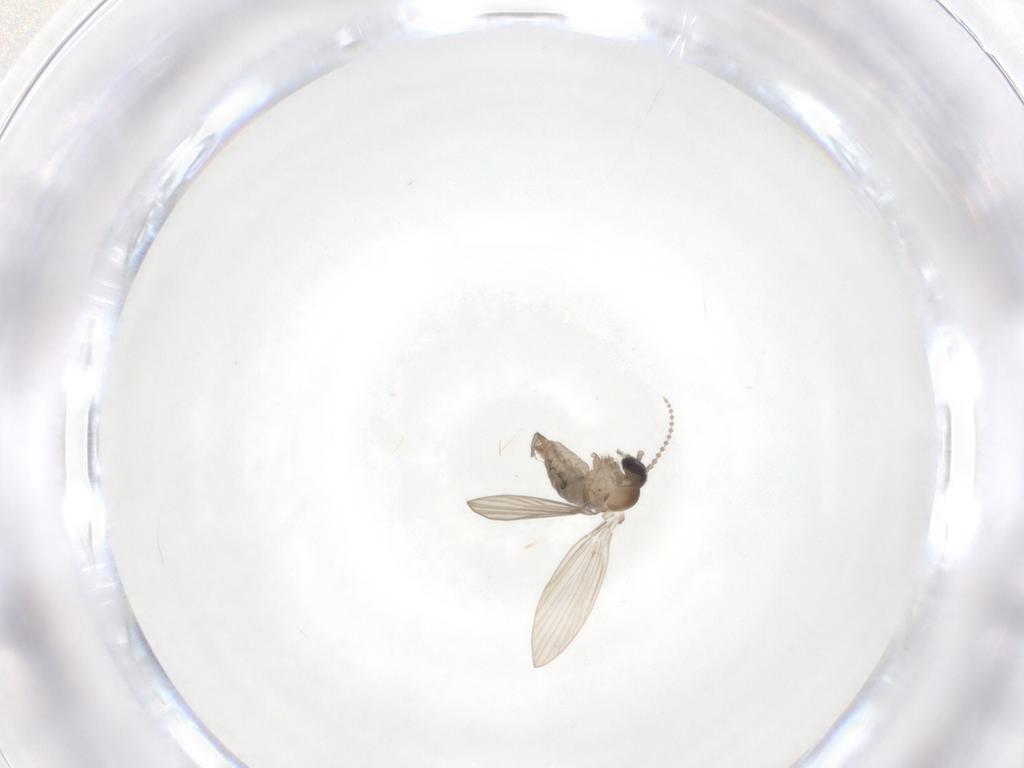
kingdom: Animalia
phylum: Arthropoda
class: Insecta
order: Diptera
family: Psychodidae
